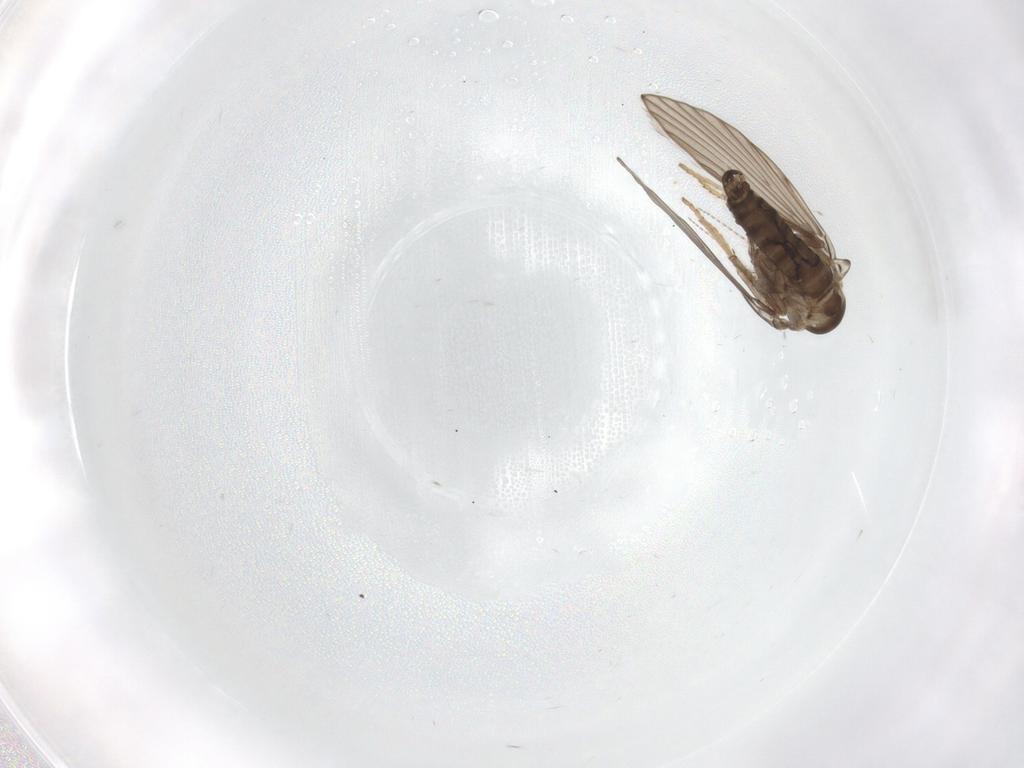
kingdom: Animalia
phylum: Arthropoda
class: Insecta
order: Diptera
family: Psychodidae
